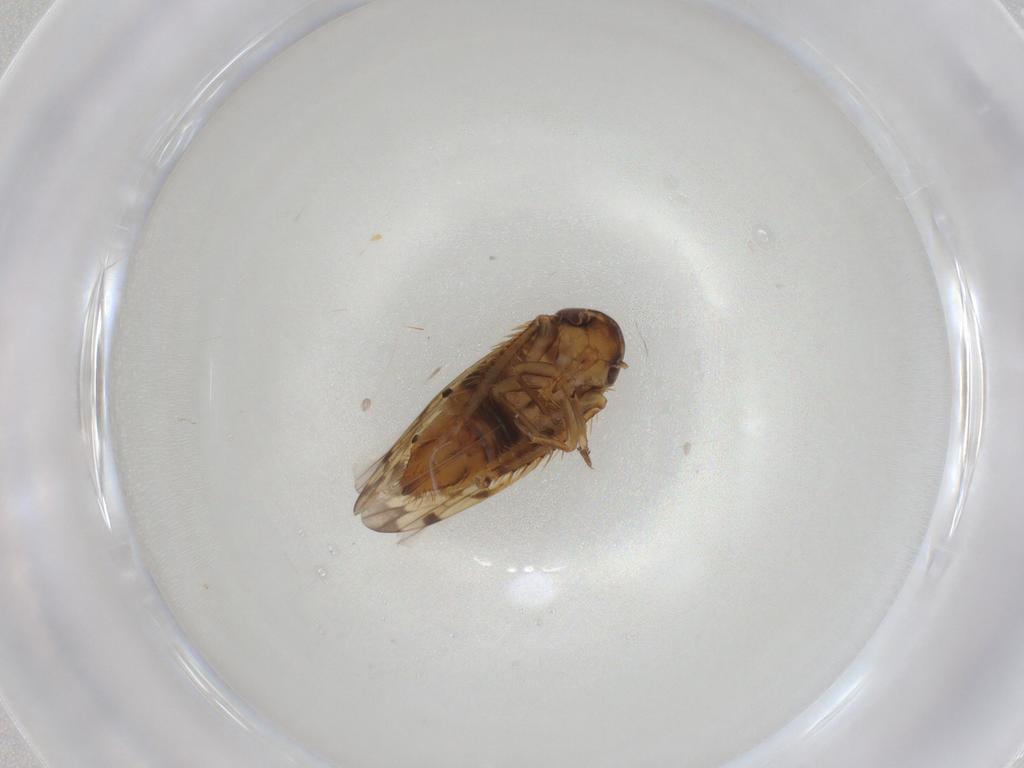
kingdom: Animalia
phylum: Arthropoda
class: Insecta
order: Hemiptera
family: Cicadellidae
